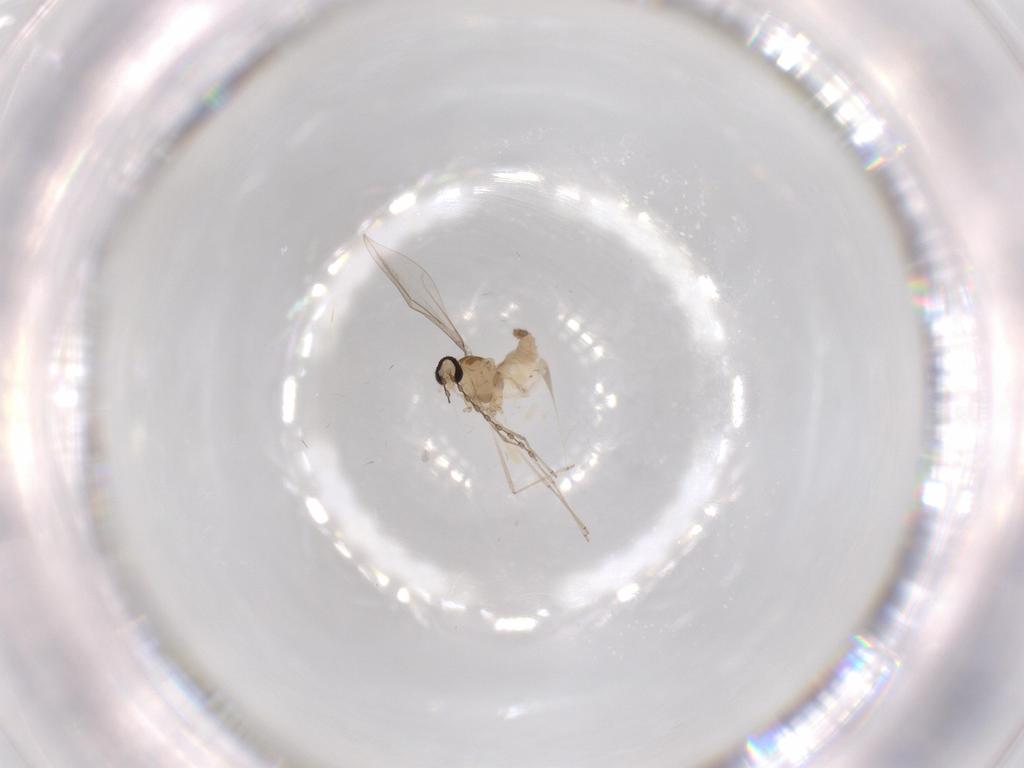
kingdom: Animalia
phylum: Arthropoda
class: Insecta
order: Diptera
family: Cecidomyiidae
